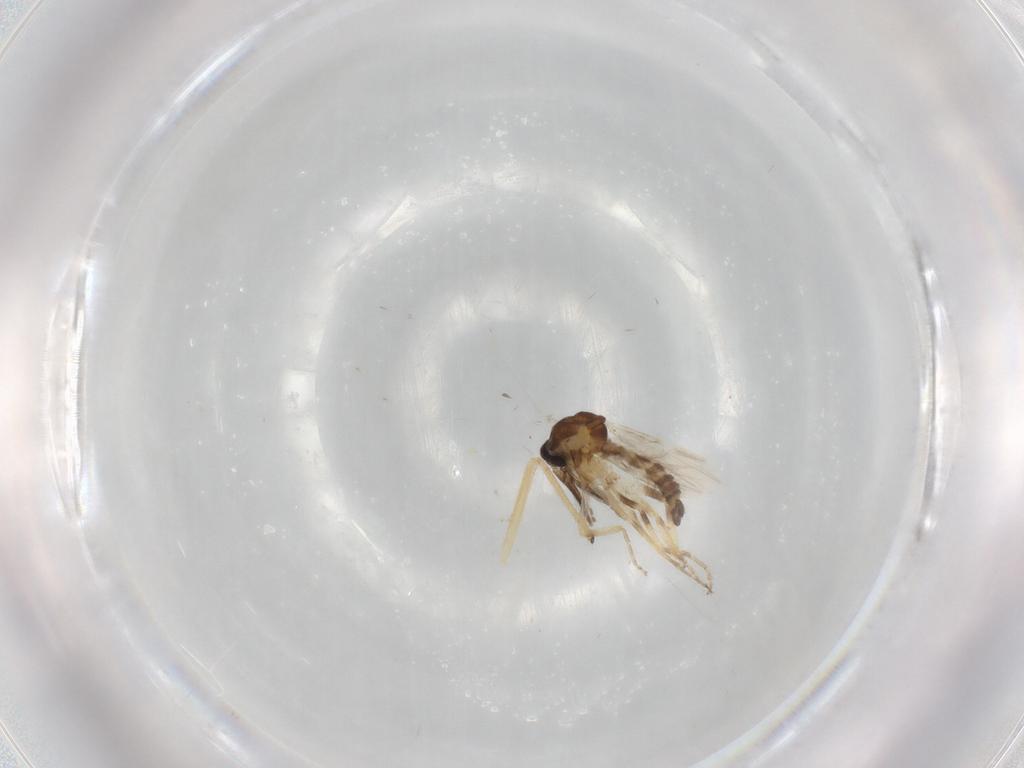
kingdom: Animalia
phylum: Arthropoda
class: Insecta
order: Diptera
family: Ceratopogonidae
